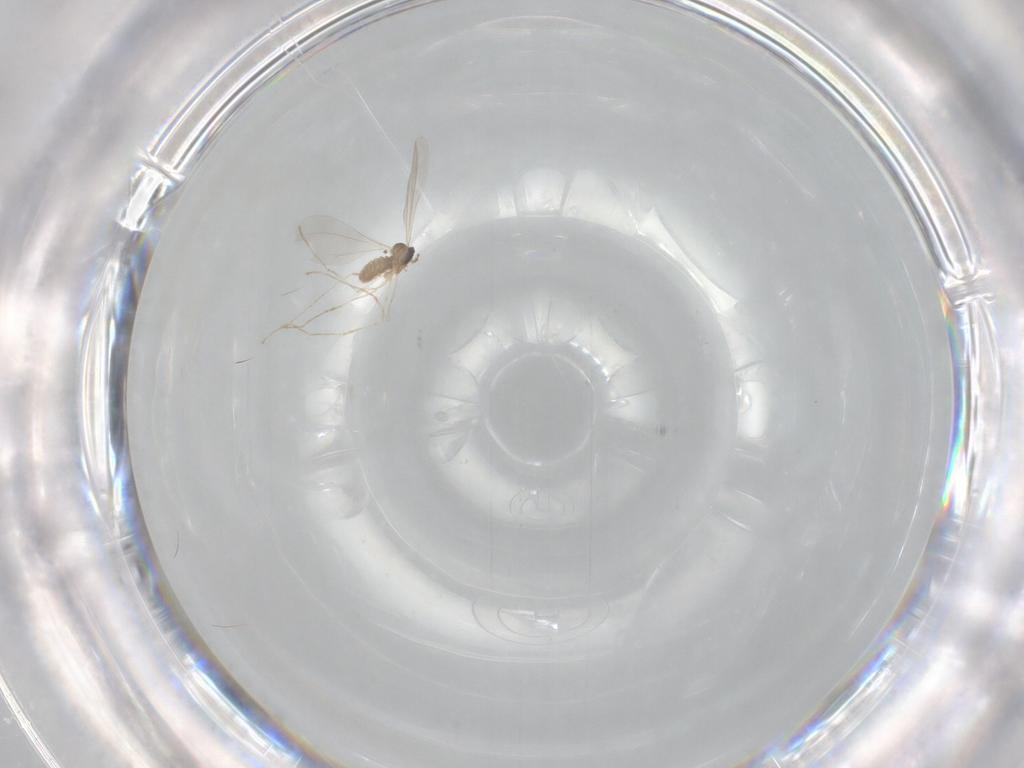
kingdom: Animalia
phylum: Arthropoda
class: Insecta
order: Diptera
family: Cecidomyiidae
